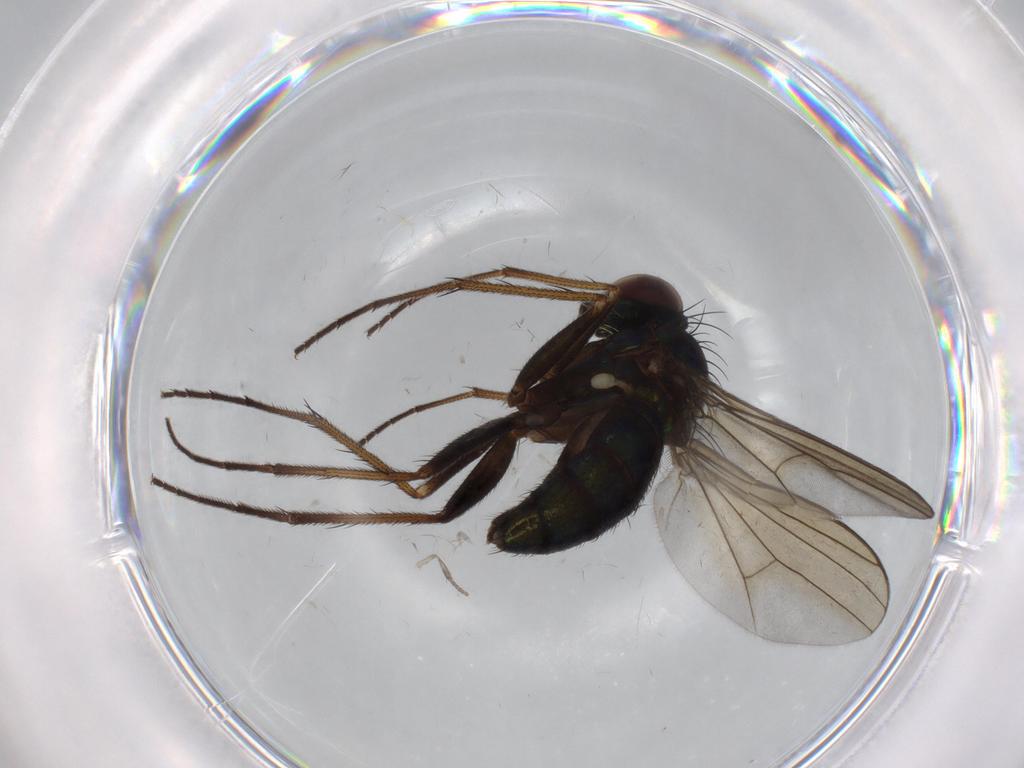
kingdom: Animalia
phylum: Arthropoda
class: Insecta
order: Diptera
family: Dolichopodidae
